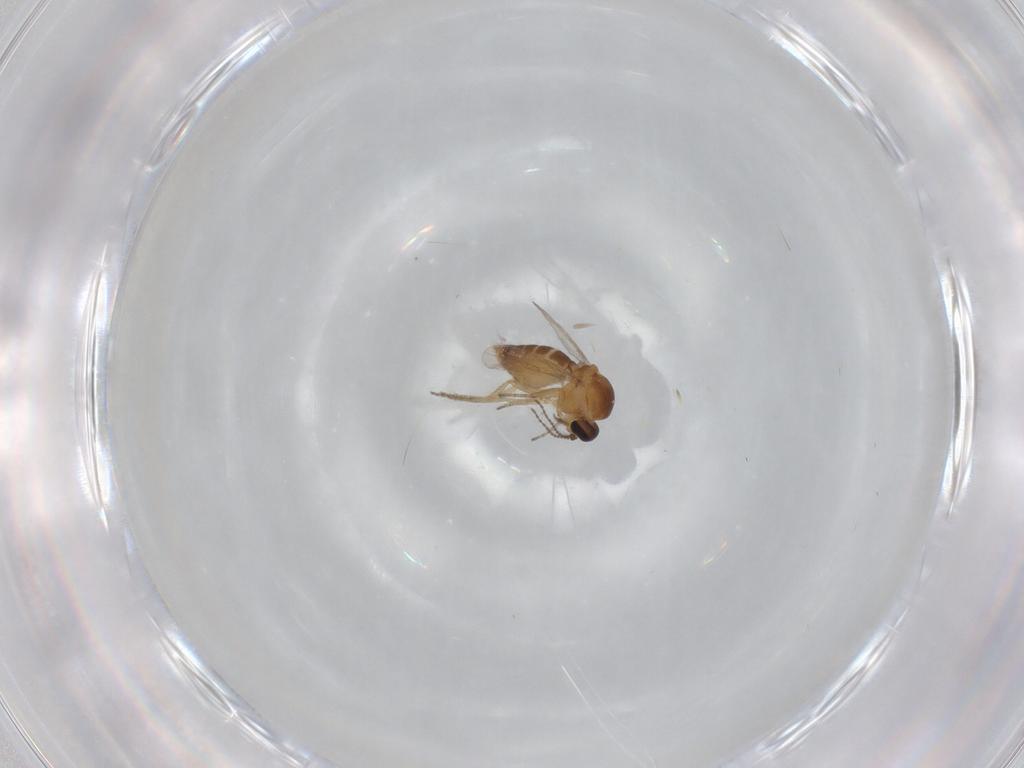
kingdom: Animalia
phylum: Arthropoda
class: Insecta
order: Diptera
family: Ceratopogonidae
